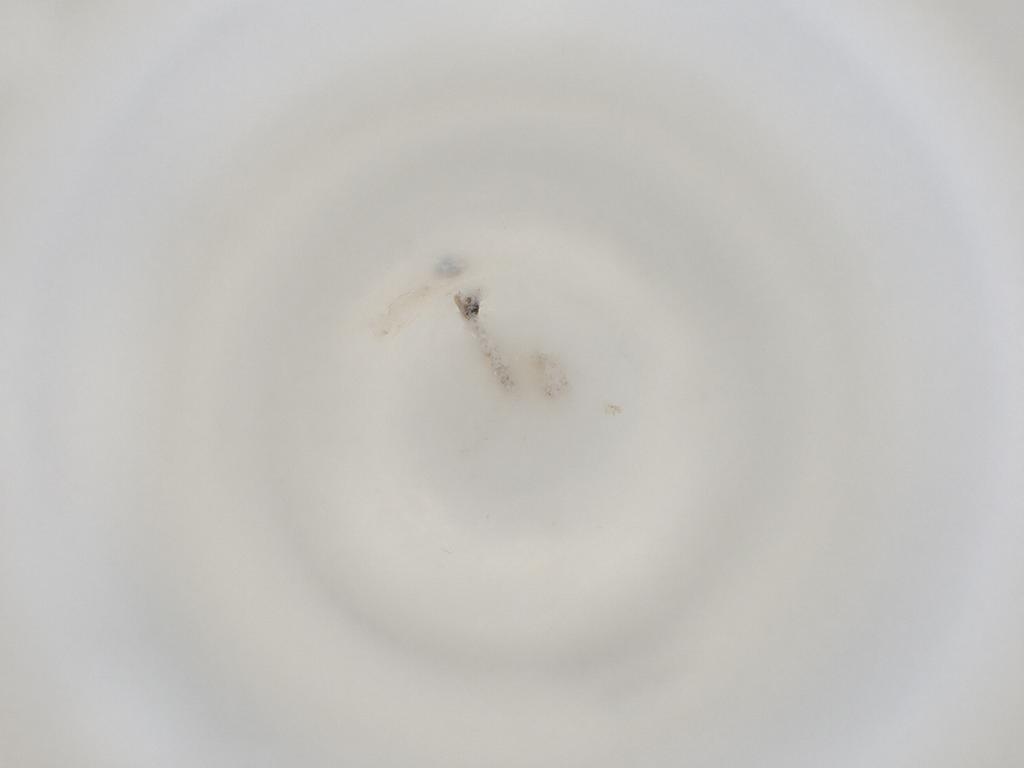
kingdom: Animalia
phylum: Arthropoda
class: Insecta
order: Diptera
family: Cecidomyiidae
